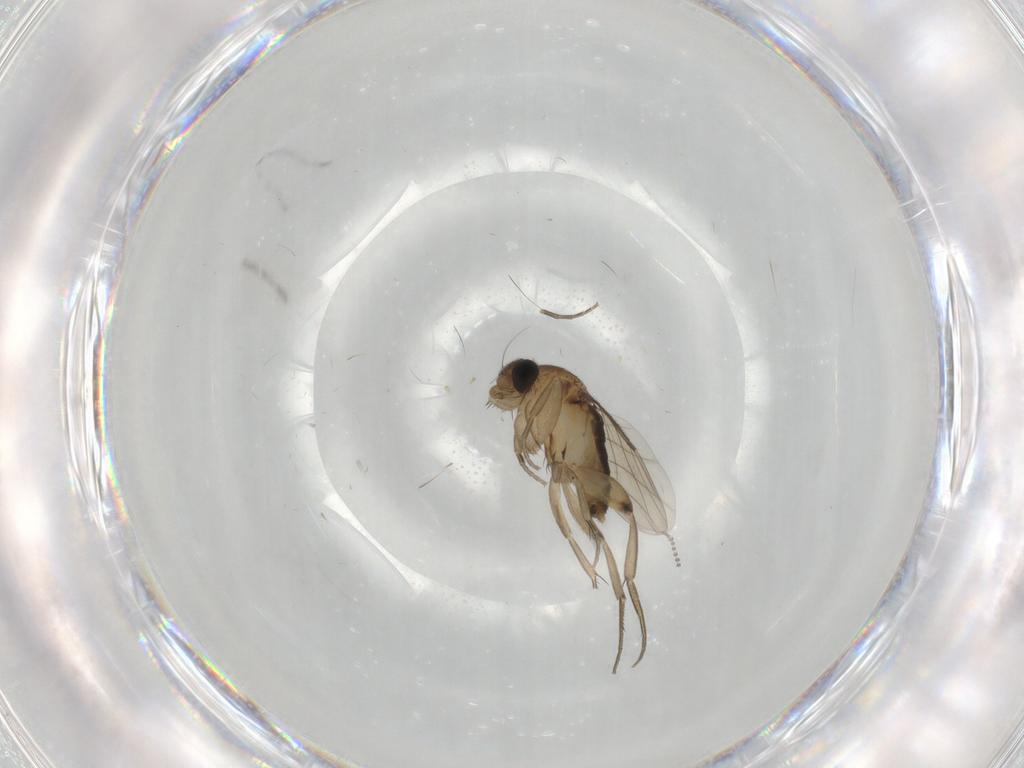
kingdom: Animalia
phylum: Arthropoda
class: Insecta
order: Diptera
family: Phoridae
